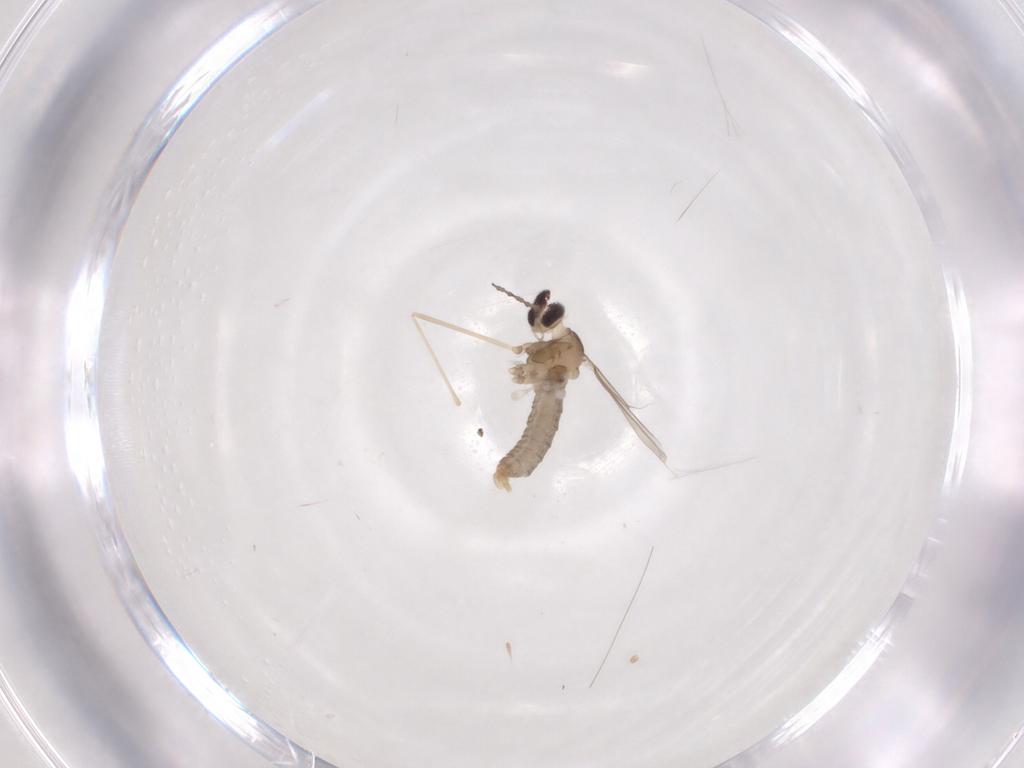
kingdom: Animalia
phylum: Arthropoda
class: Insecta
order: Diptera
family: Cecidomyiidae
